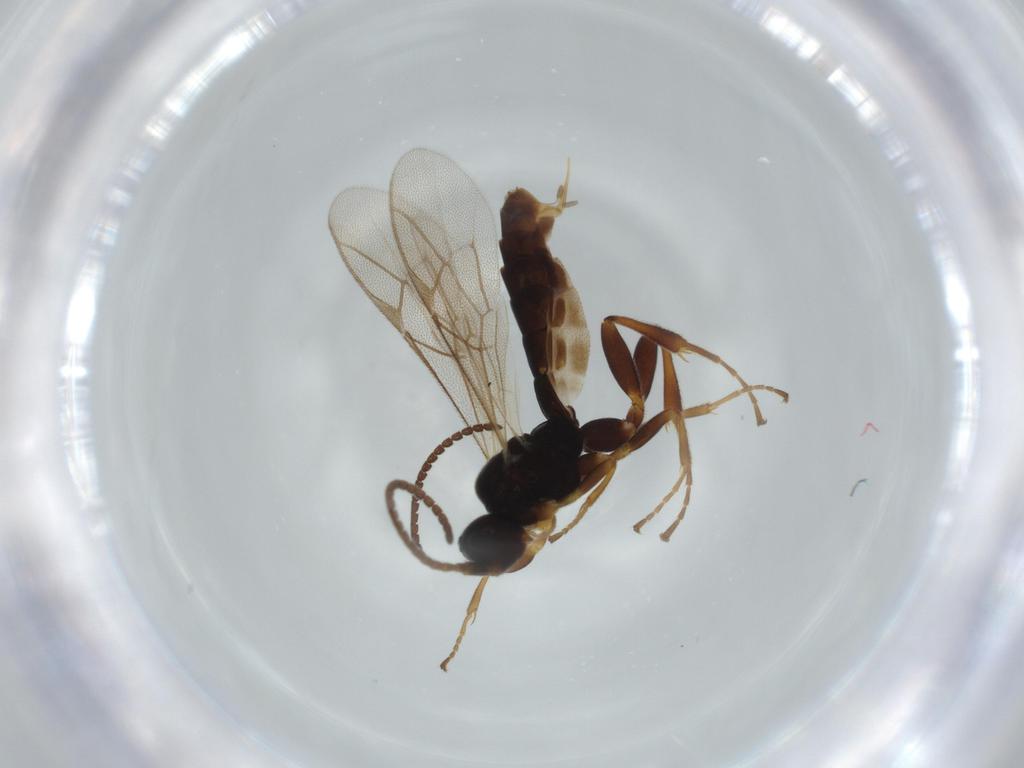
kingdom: Animalia
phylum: Arthropoda
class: Insecta
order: Hymenoptera
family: Ichneumonidae
